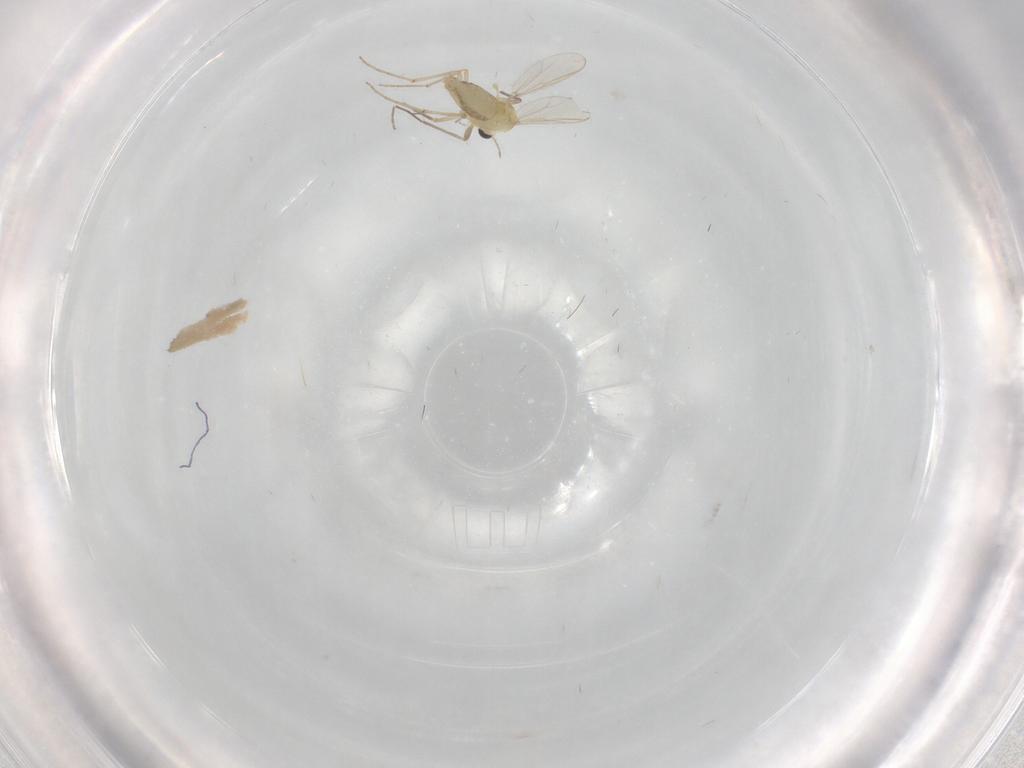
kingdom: Animalia
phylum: Arthropoda
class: Insecta
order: Diptera
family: Chironomidae
